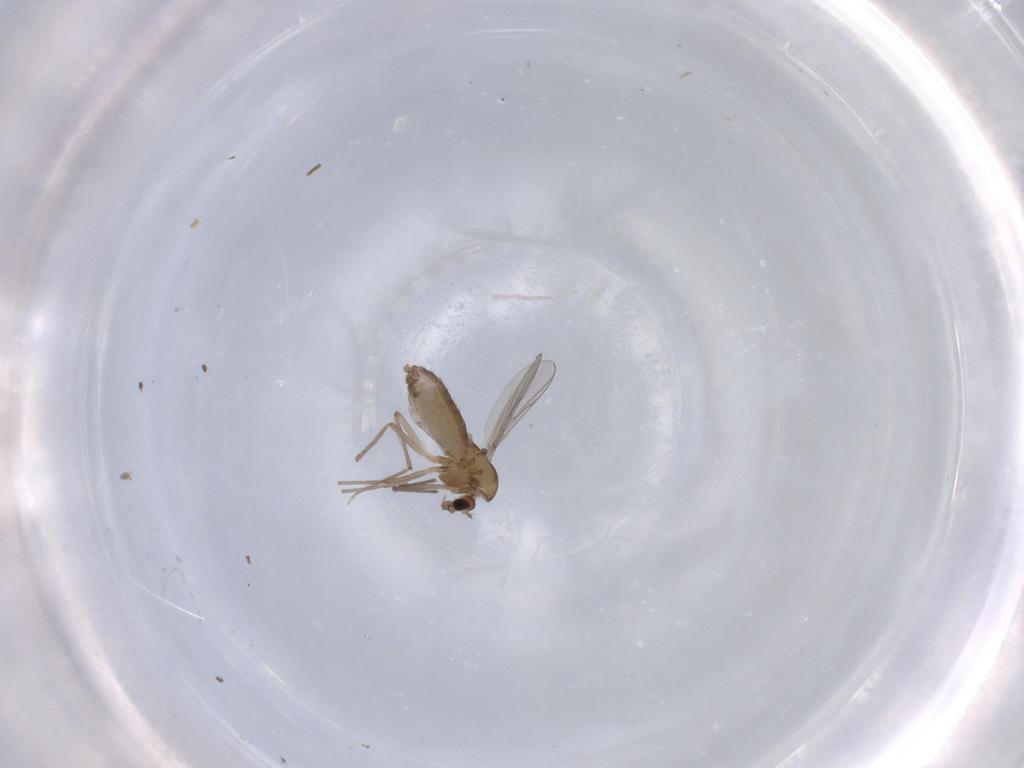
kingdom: Animalia
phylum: Arthropoda
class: Insecta
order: Diptera
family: Chironomidae
